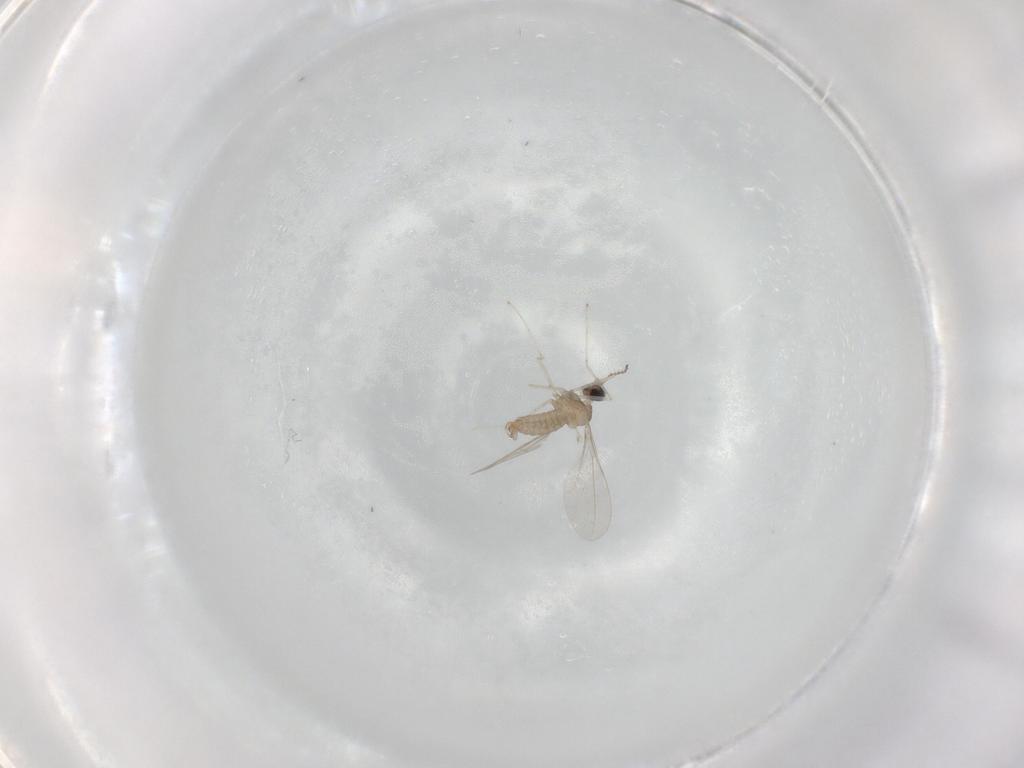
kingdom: Animalia
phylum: Arthropoda
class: Insecta
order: Diptera
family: Cecidomyiidae
